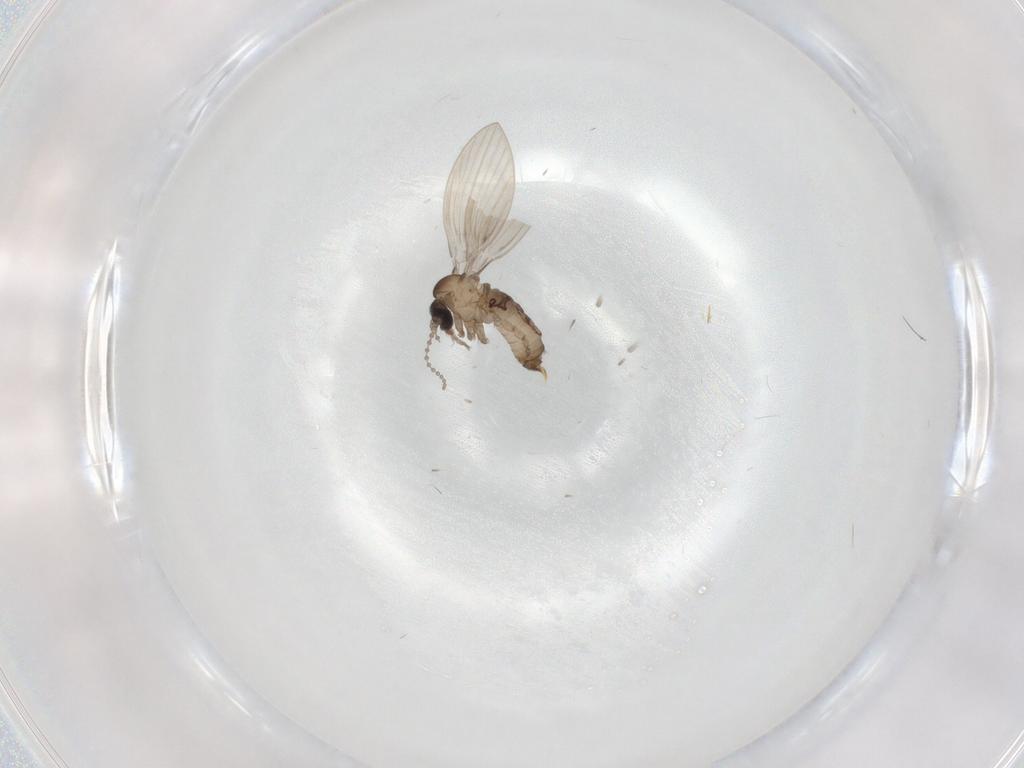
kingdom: Animalia
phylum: Arthropoda
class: Insecta
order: Diptera
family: Psychodidae
